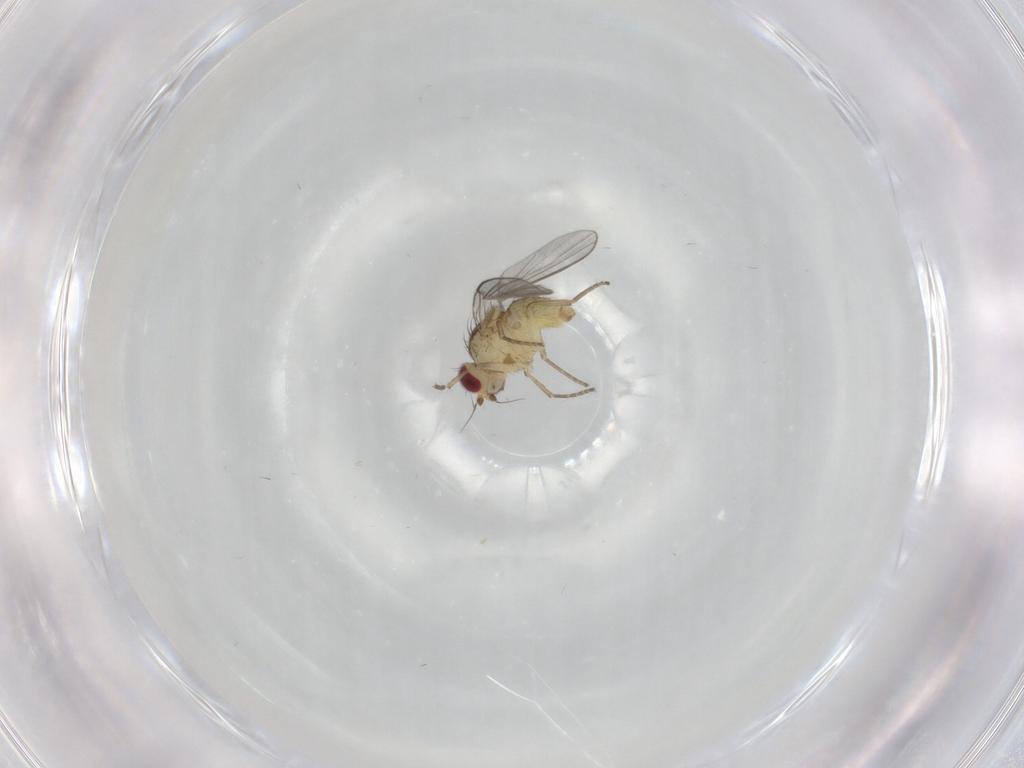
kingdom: Animalia
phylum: Arthropoda
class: Insecta
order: Diptera
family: Agromyzidae
